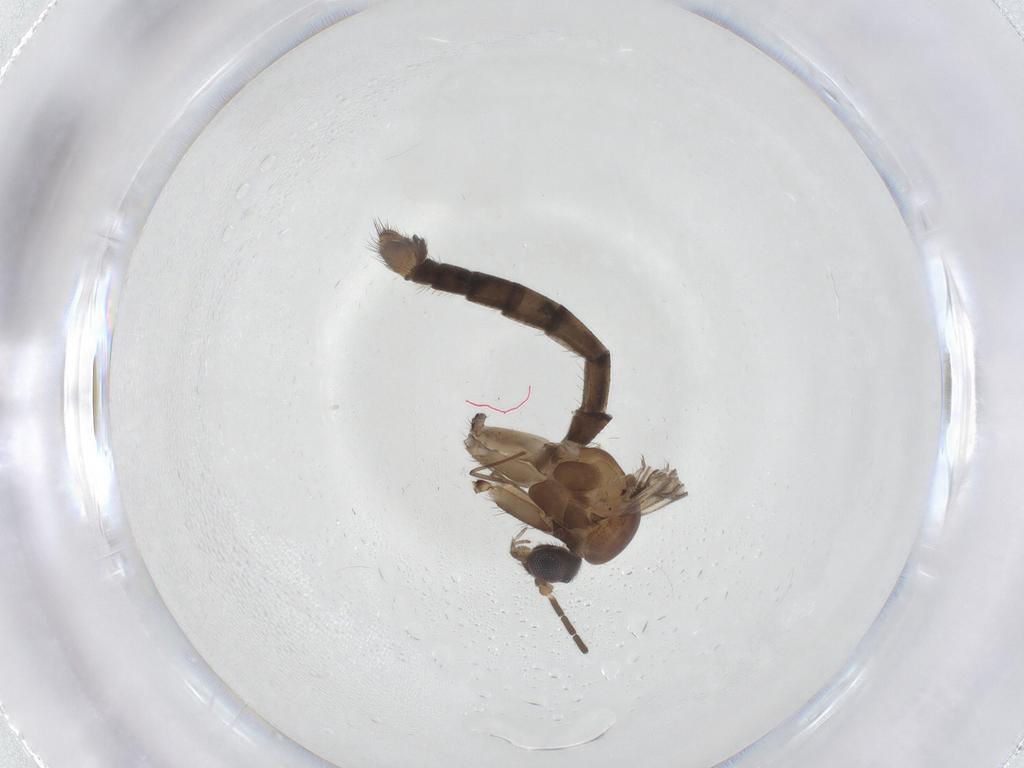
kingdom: Animalia
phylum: Arthropoda
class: Insecta
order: Diptera
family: Mycetophilidae
